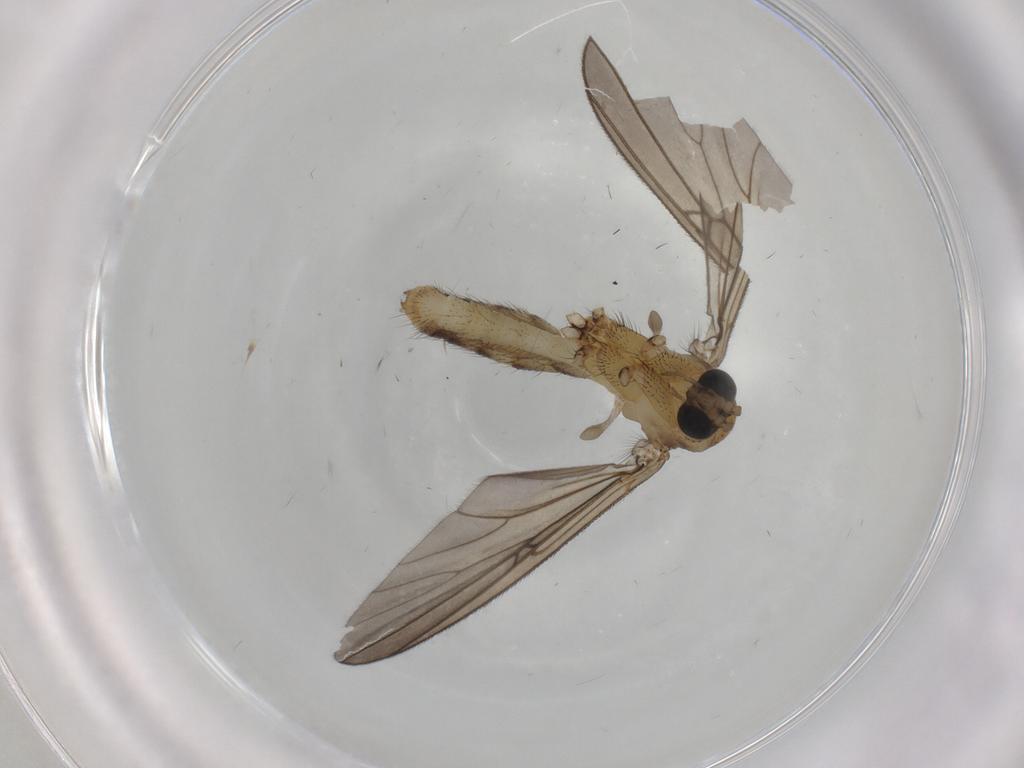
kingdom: Animalia
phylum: Arthropoda
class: Insecta
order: Diptera
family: Mycetophilidae
